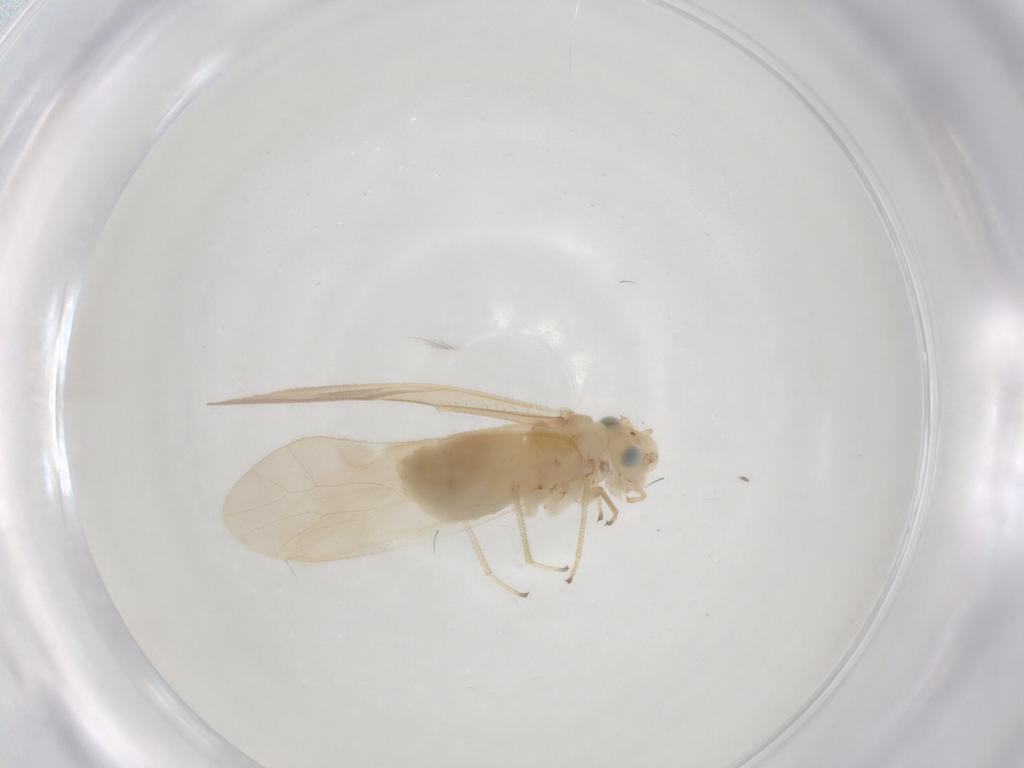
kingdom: Animalia
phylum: Arthropoda
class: Insecta
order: Psocodea
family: Caeciliusidae
